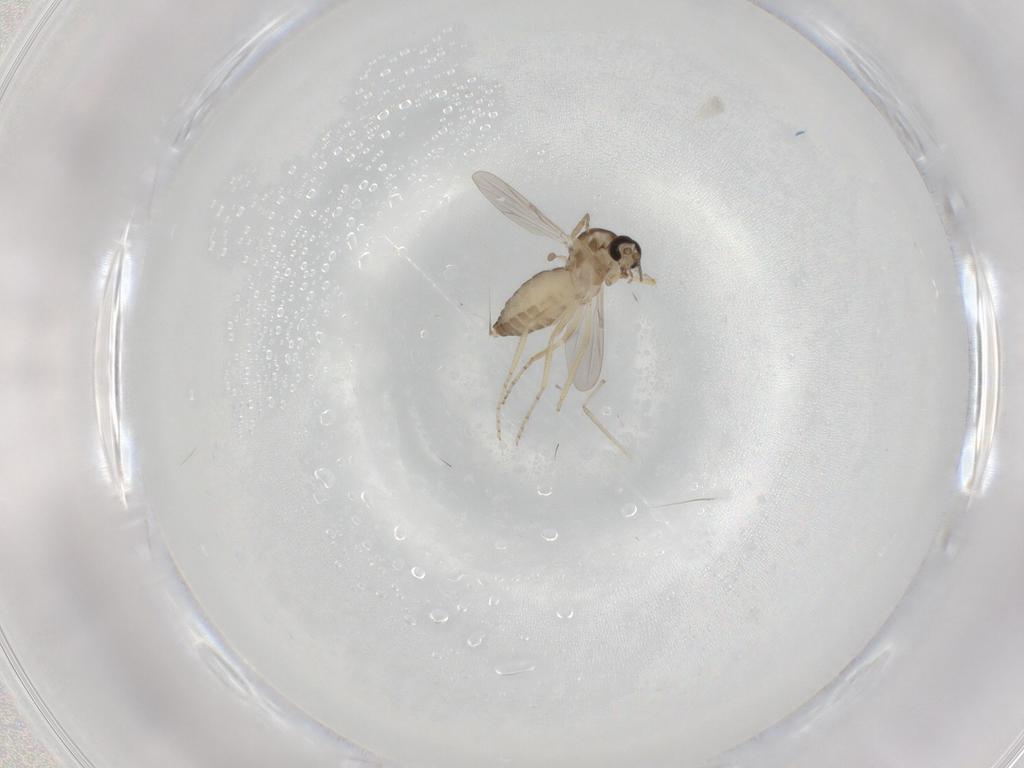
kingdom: Animalia
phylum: Arthropoda
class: Insecta
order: Diptera
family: Ceratopogonidae
